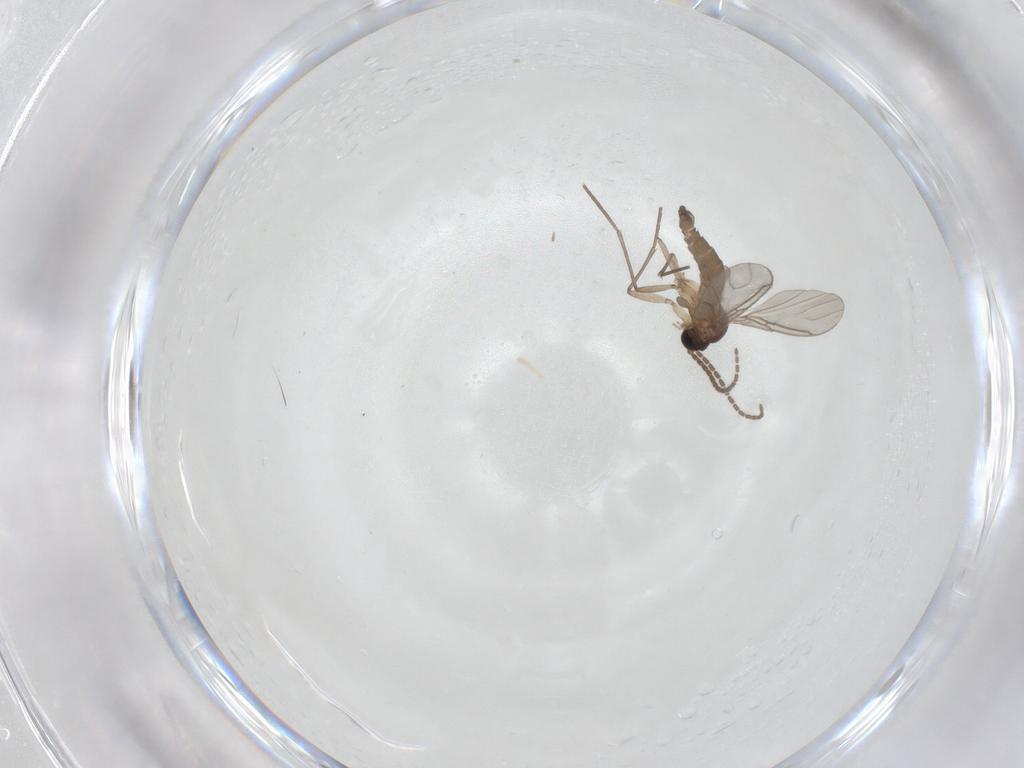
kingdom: Animalia
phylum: Arthropoda
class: Insecta
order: Diptera
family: Sciaridae
